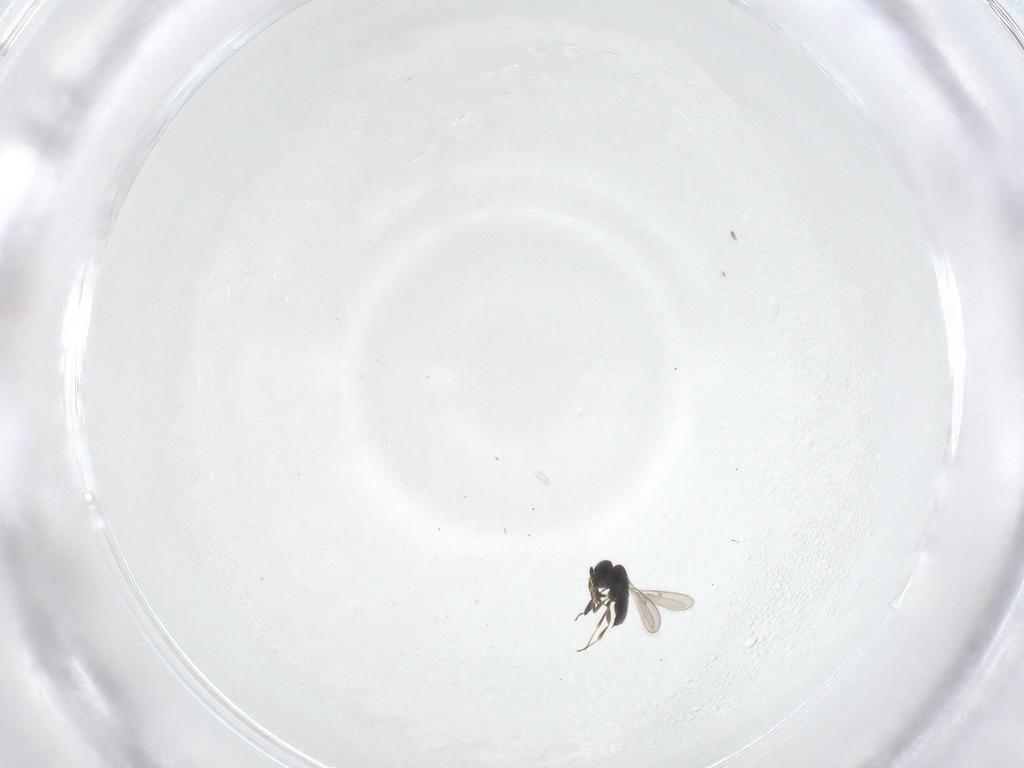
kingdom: Animalia
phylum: Arthropoda
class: Insecta
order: Hymenoptera
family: Scelionidae
